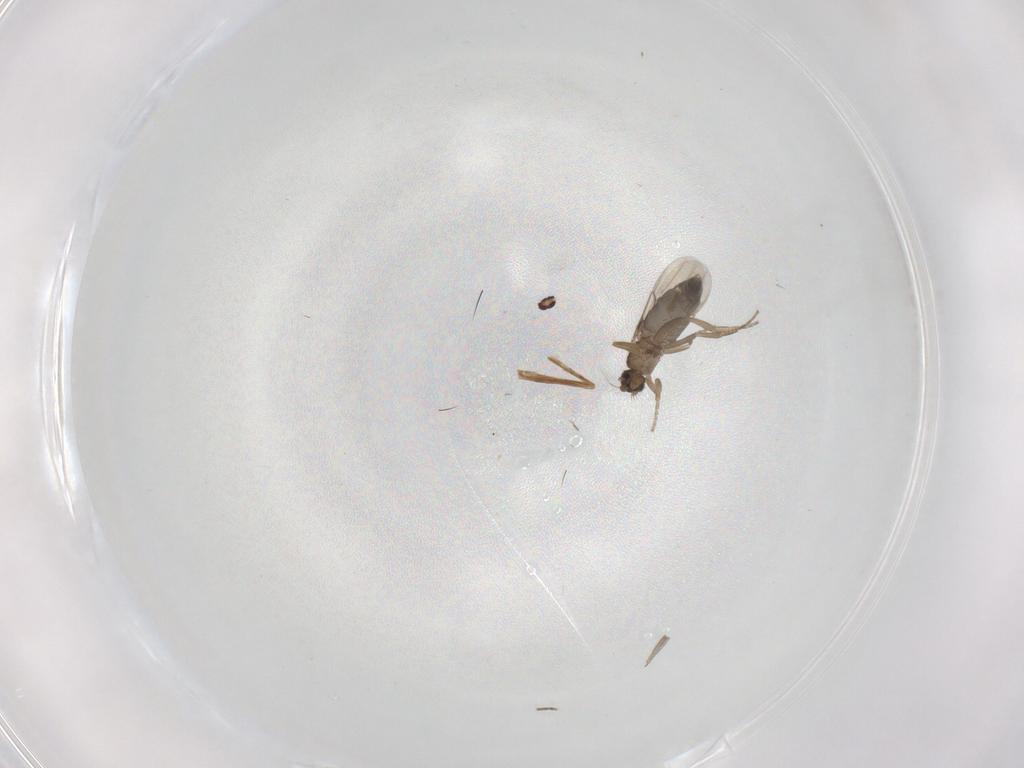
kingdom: Animalia
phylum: Arthropoda
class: Insecta
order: Diptera
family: Phoridae
